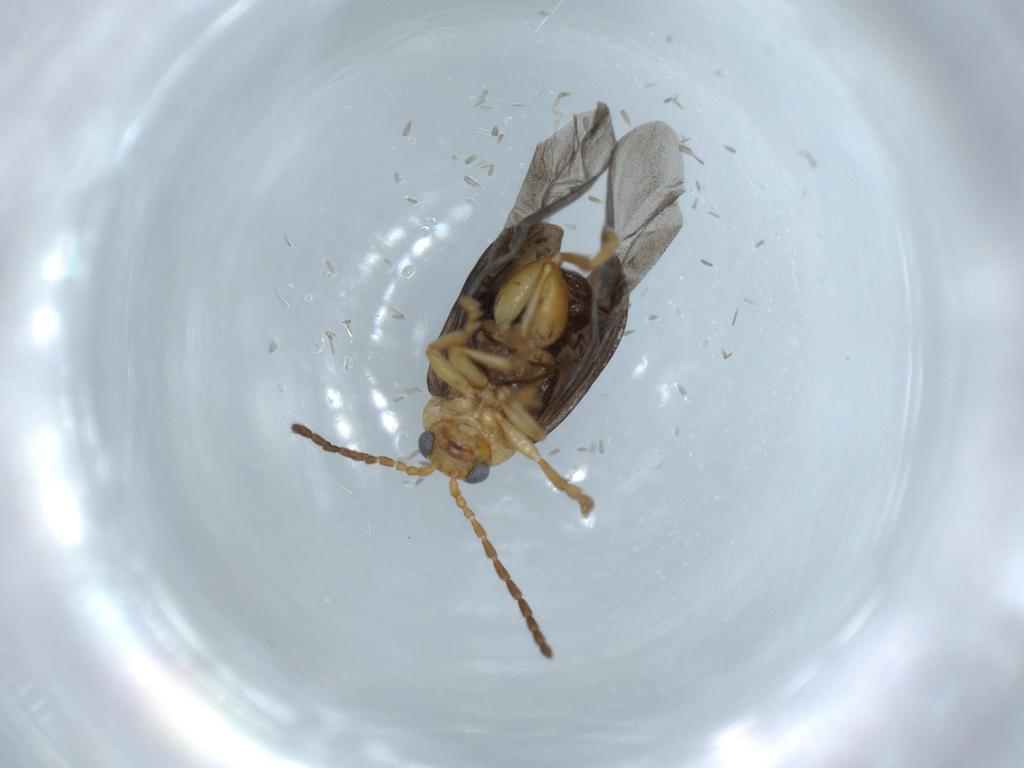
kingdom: Animalia
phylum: Arthropoda
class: Insecta
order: Coleoptera
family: Chrysomelidae
